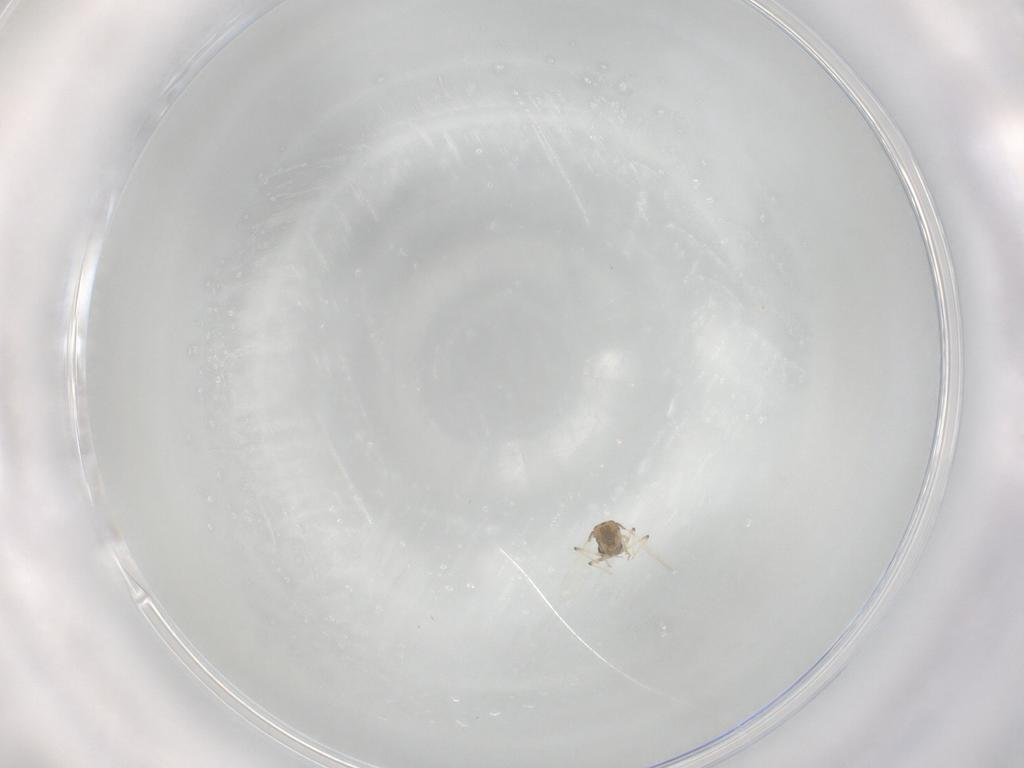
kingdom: Animalia
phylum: Arthropoda
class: Insecta
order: Diptera
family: Chironomidae
